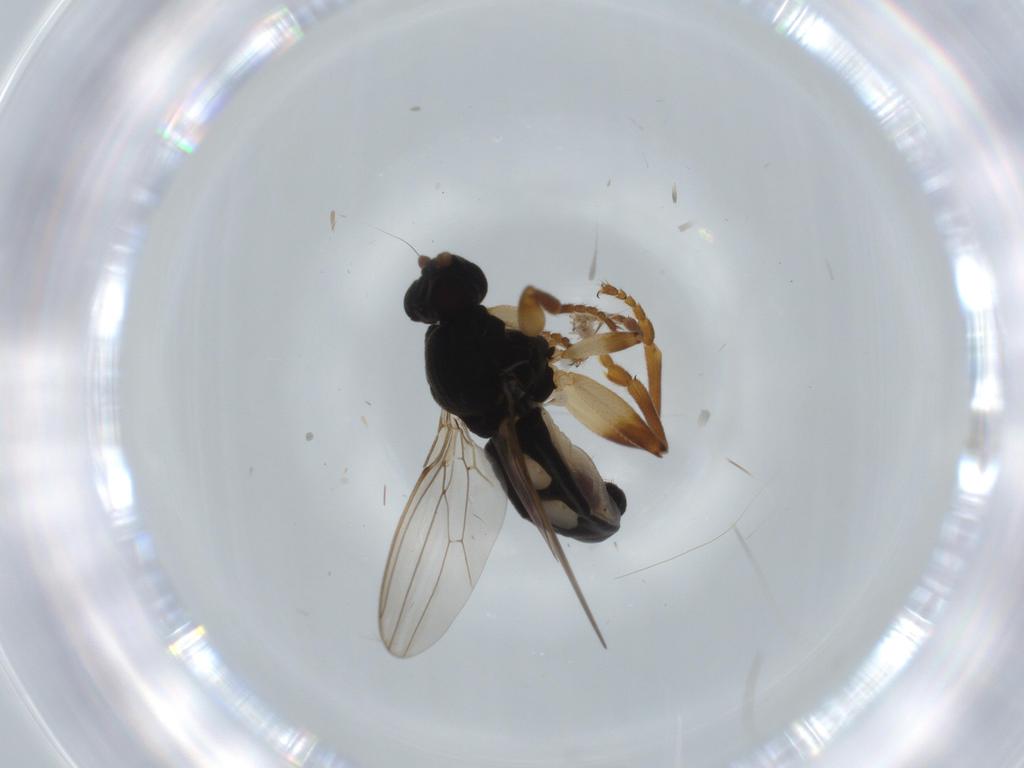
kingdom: Animalia
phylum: Arthropoda
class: Insecta
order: Diptera
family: Sphaeroceridae
